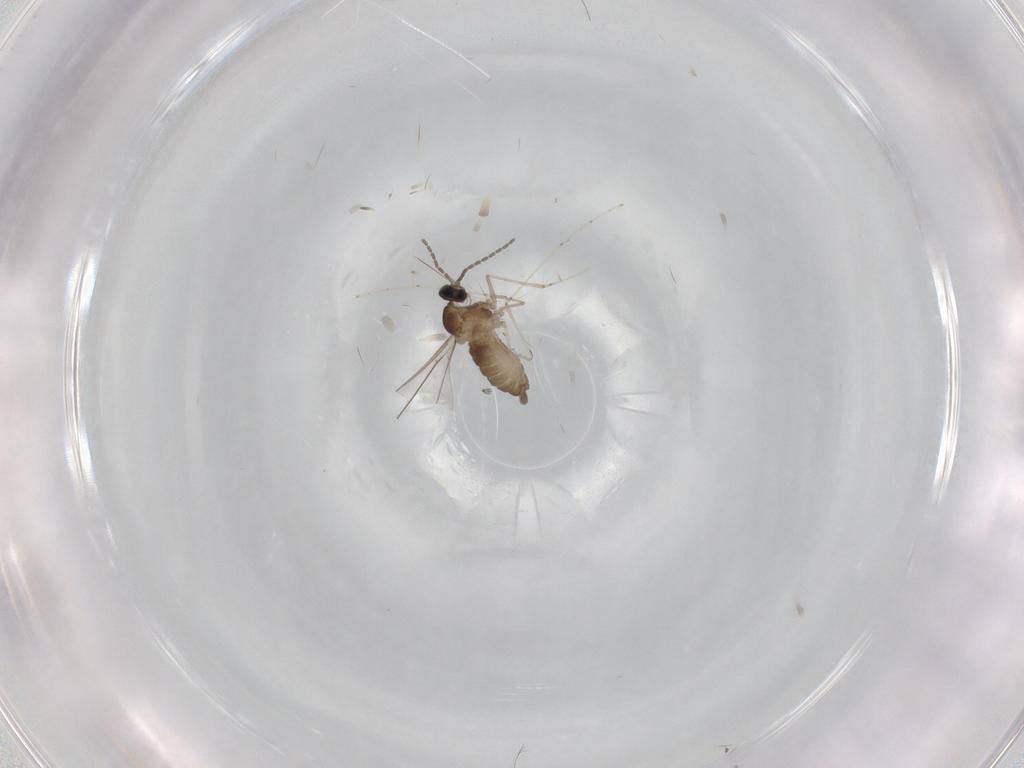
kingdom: Animalia
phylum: Arthropoda
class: Insecta
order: Diptera
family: Cecidomyiidae
